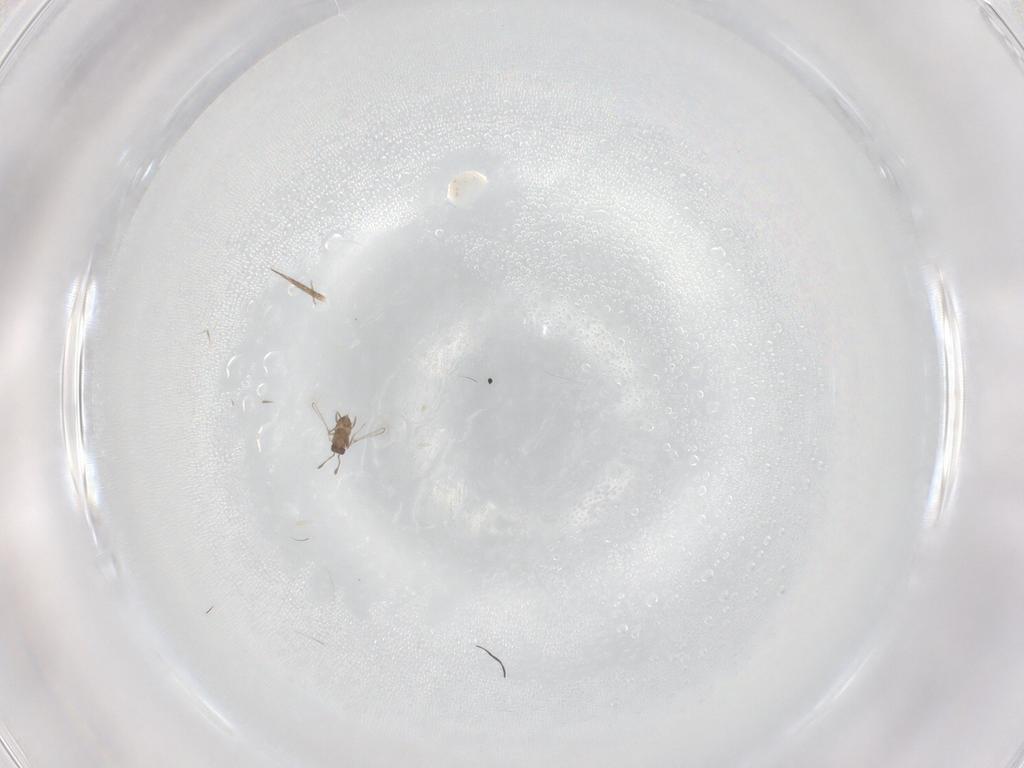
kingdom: Animalia
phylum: Arthropoda
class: Insecta
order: Hymenoptera
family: Mymaridae
